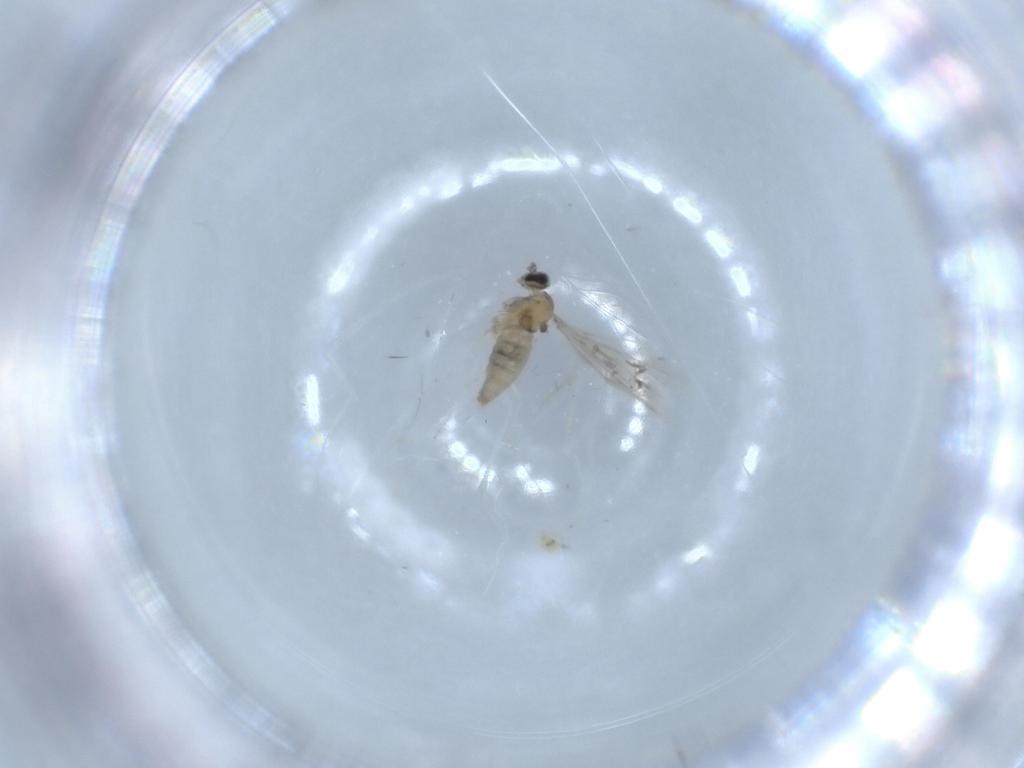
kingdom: Animalia
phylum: Arthropoda
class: Insecta
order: Diptera
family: Cecidomyiidae
